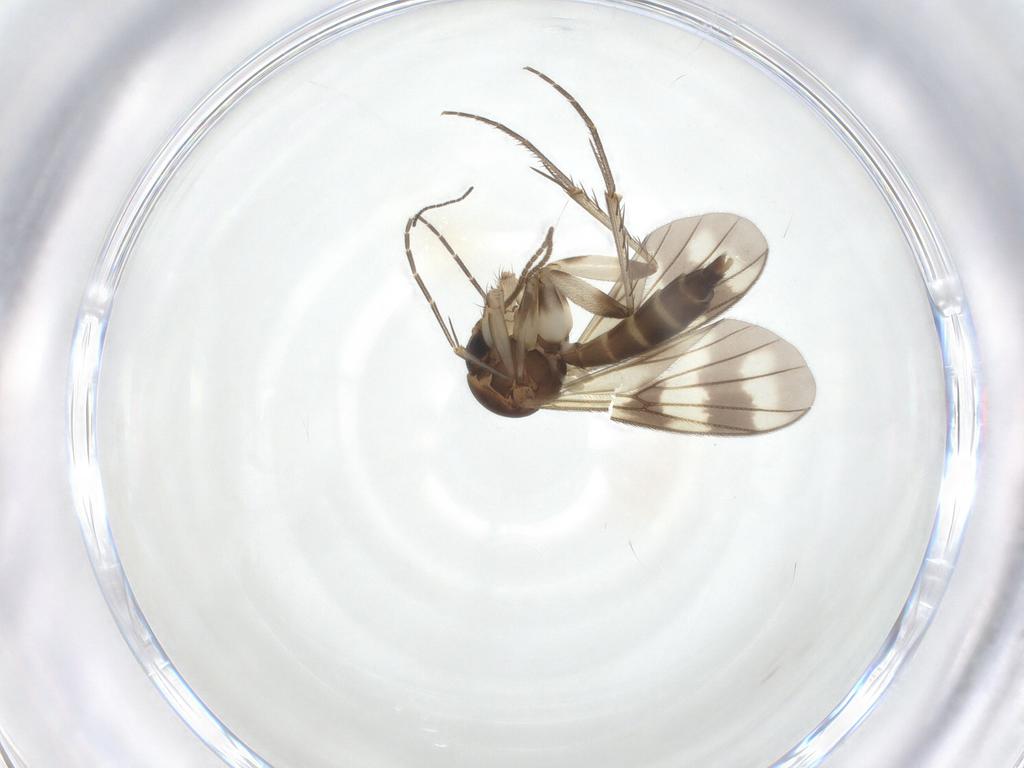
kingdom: Animalia
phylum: Arthropoda
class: Insecta
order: Diptera
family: Mycetophilidae
